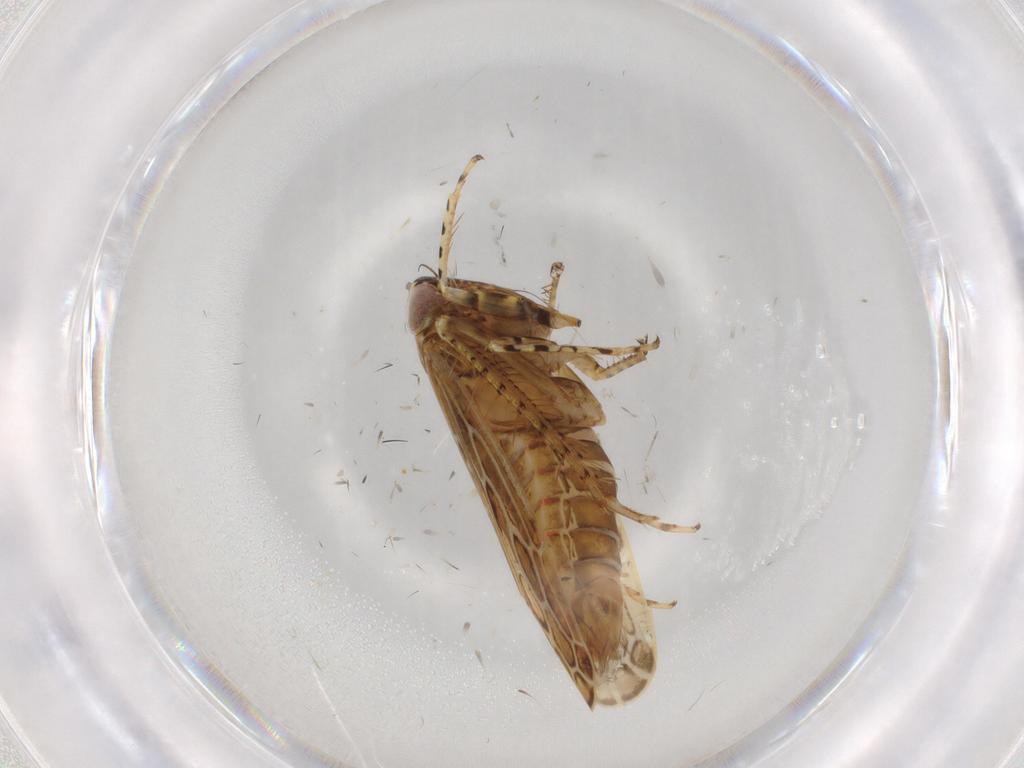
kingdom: Animalia
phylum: Arthropoda
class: Insecta
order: Hemiptera
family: Cicadellidae
